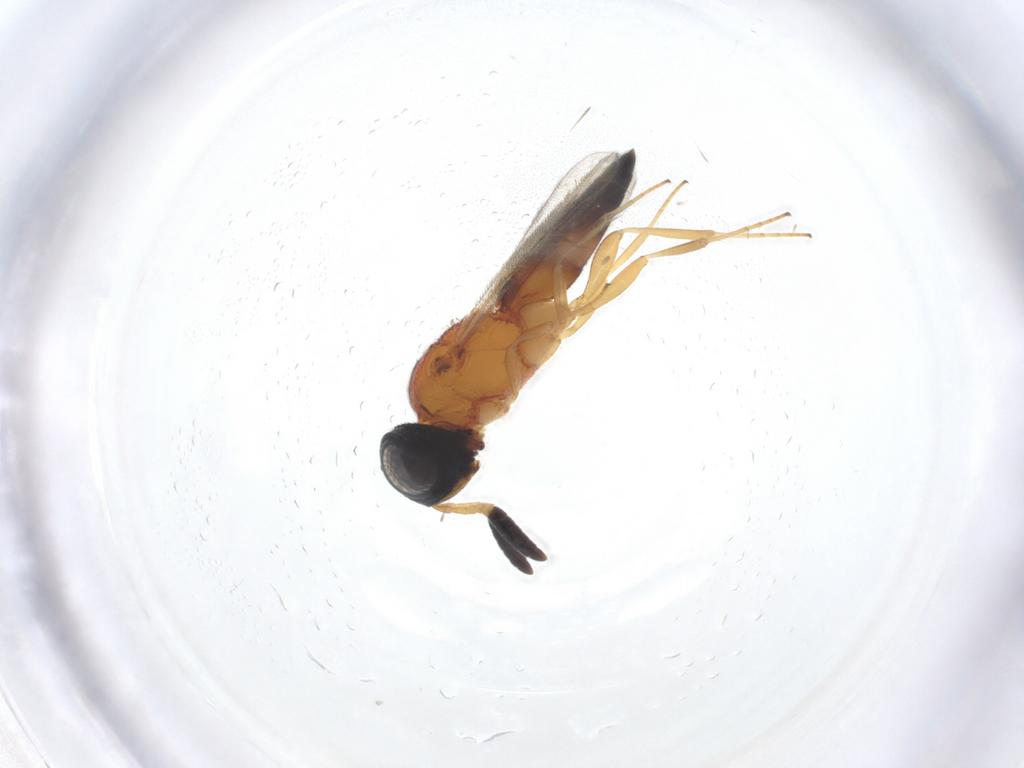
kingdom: Animalia
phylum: Arthropoda
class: Insecta
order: Hymenoptera
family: Scelionidae
